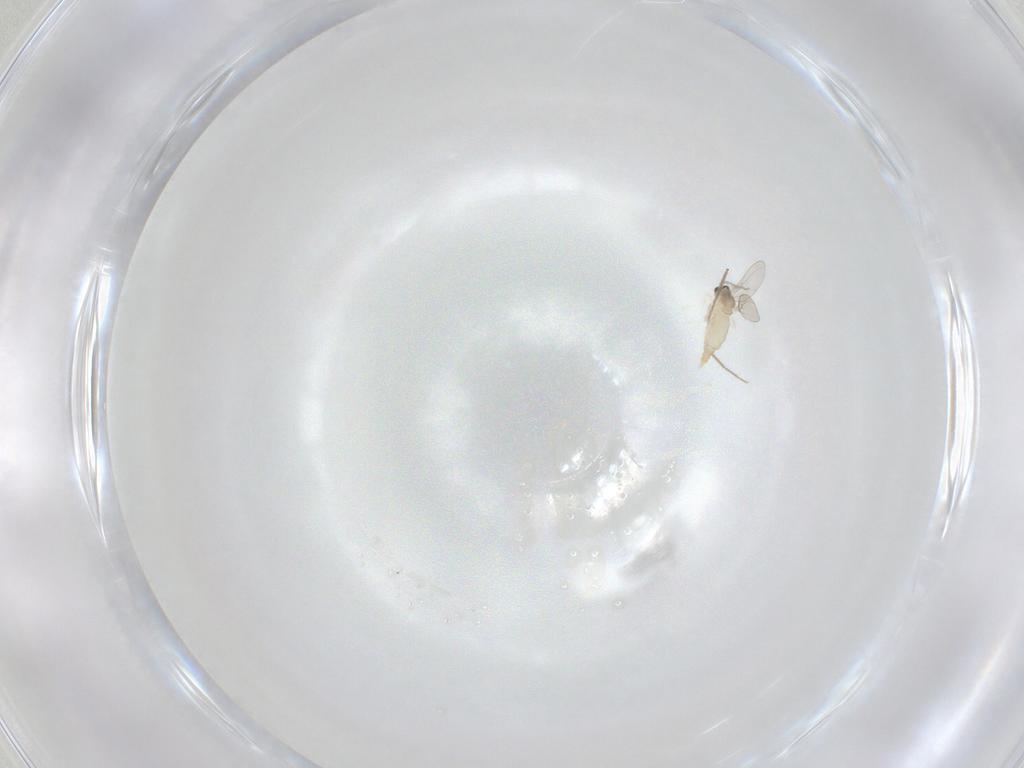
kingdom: Animalia
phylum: Arthropoda
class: Insecta
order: Diptera
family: Cecidomyiidae
